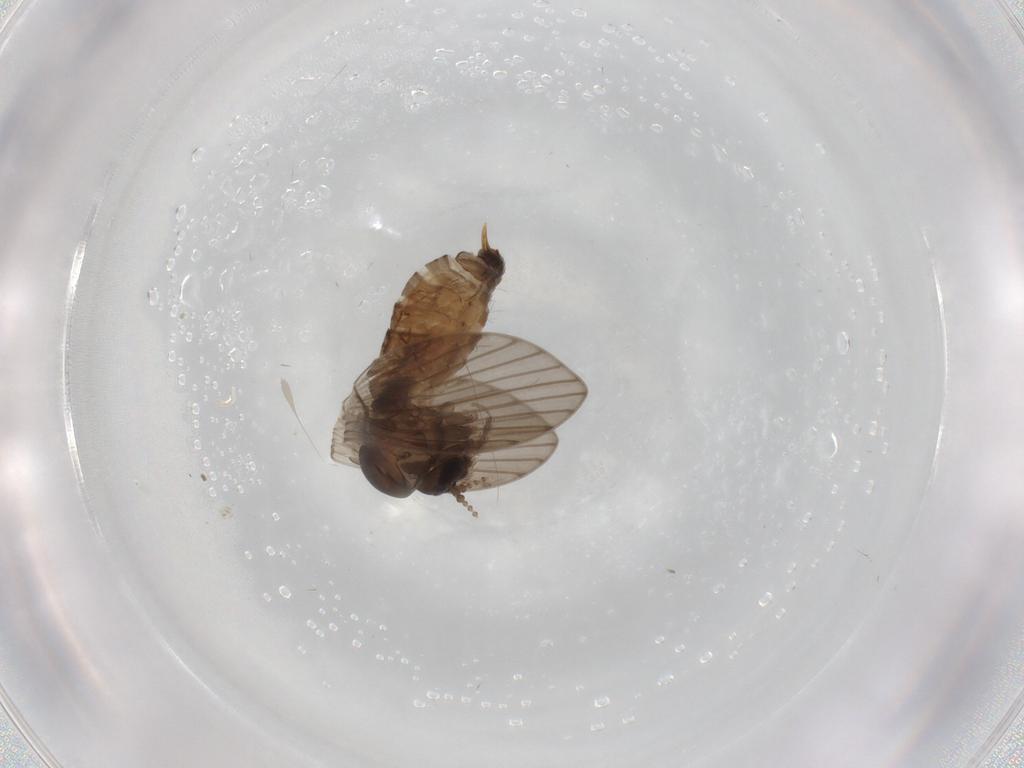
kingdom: Animalia
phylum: Arthropoda
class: Insecta
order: Diptera
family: Psychodidae
